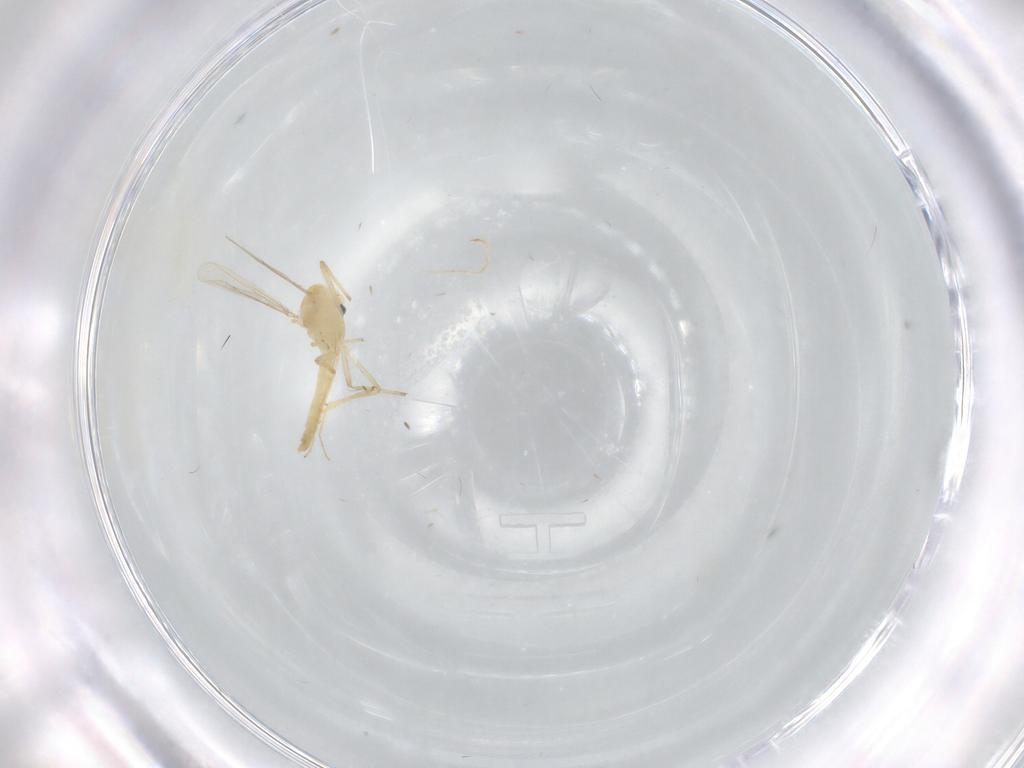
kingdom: Animalia
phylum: Arthropoda
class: Insecta
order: Diptera
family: Chironomidae
